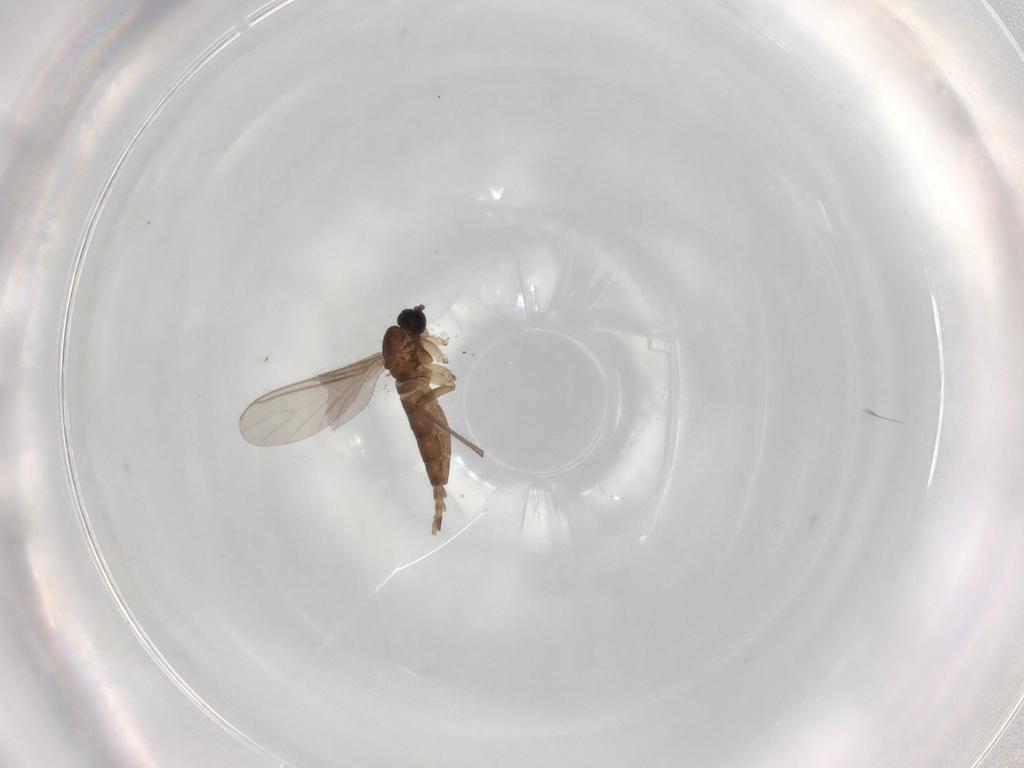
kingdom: Animalia
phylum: Arthropoda
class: Insecta
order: Diptera
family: Sciaridae
